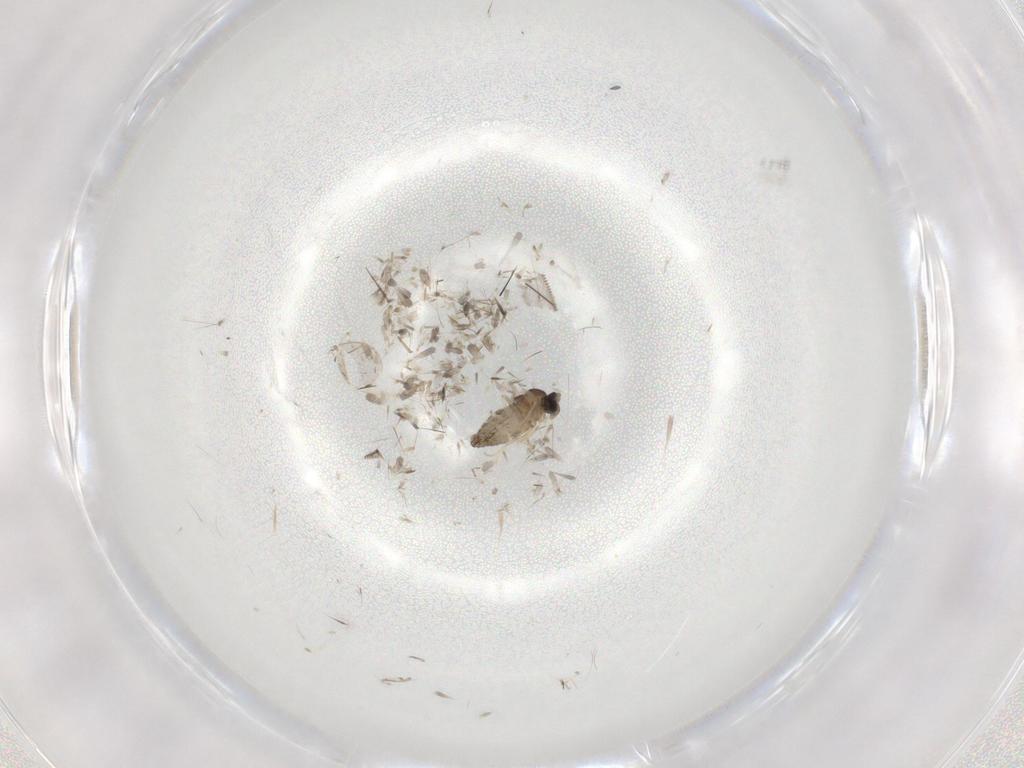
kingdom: Animalia
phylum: Arthropoda
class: Insecta
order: Diptera
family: Cecidomyiidae
